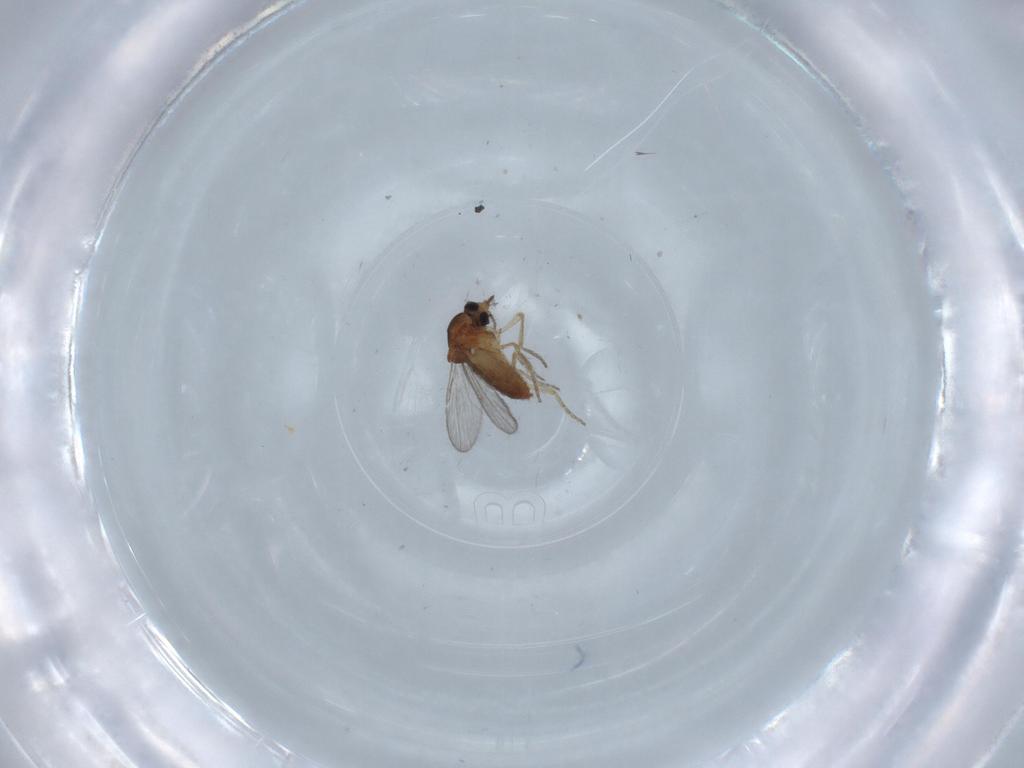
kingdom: Animalia
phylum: Arthropoda
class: Insecta
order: Diptera
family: Ceratopogonidae
